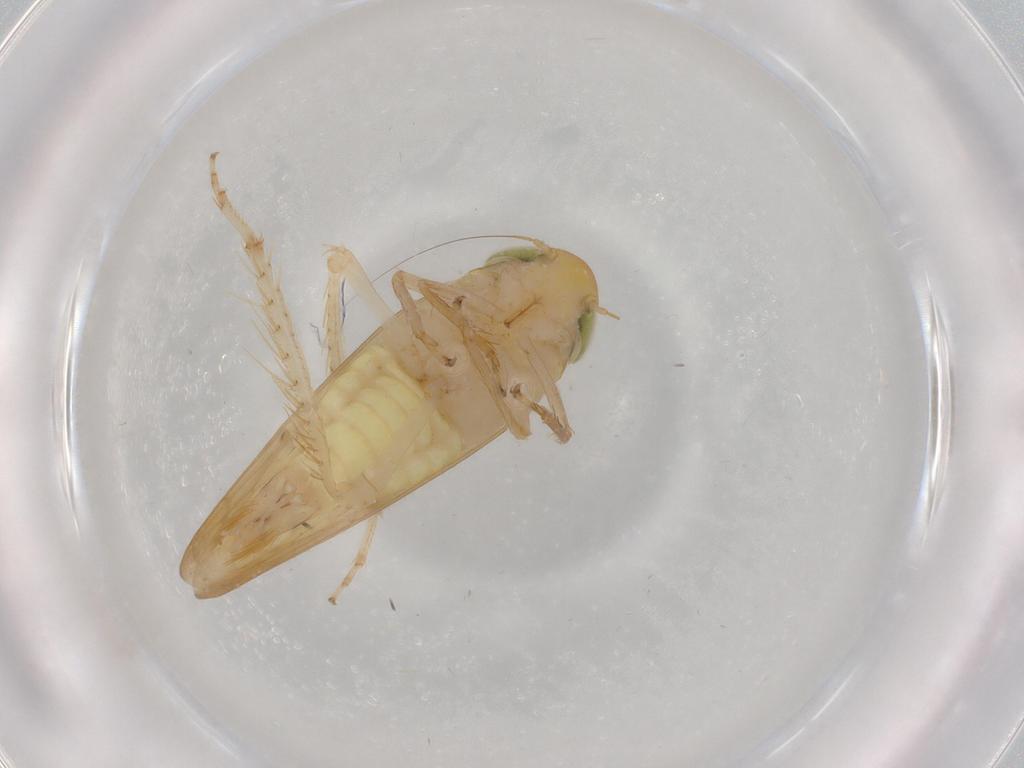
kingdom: Animalia
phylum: Arthropoda
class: Insecta
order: Hemiptera
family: Cicadellidae
